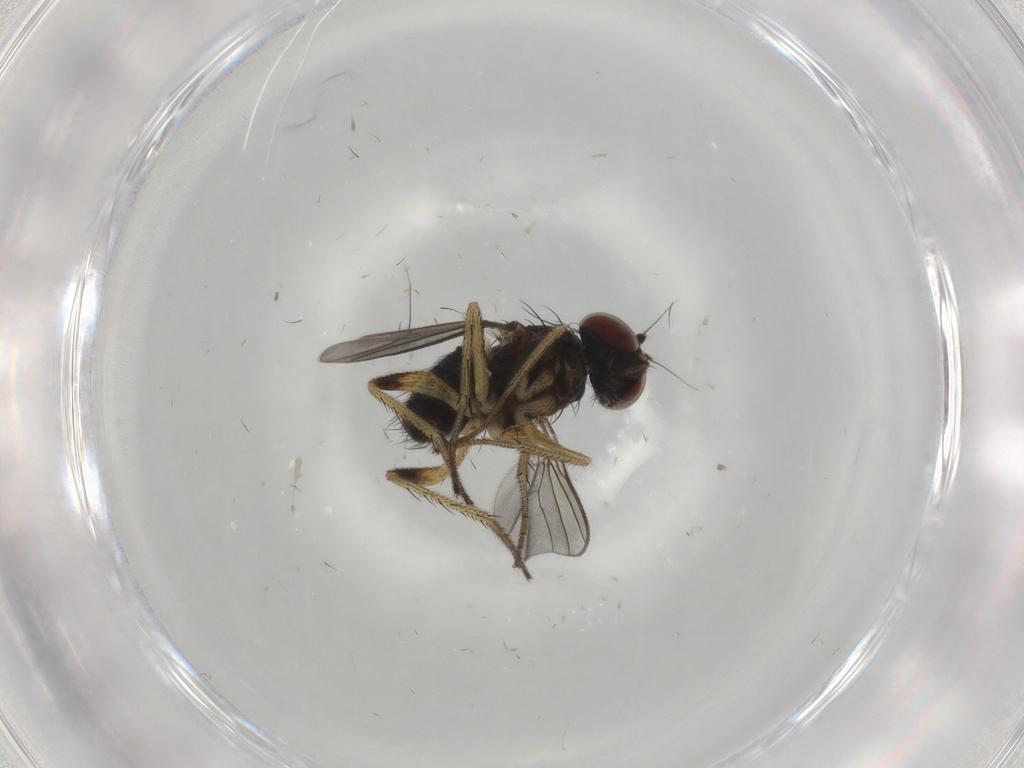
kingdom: Animalia
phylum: Arthropoda
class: Insecta
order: Diptera
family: Dolichopodidae
